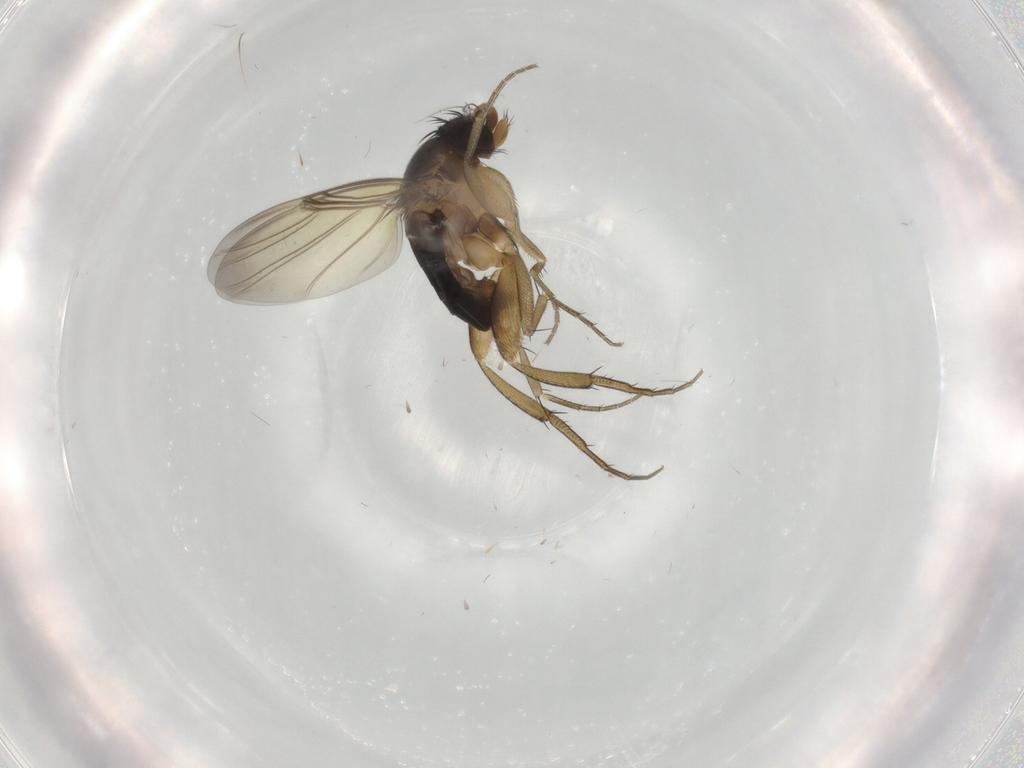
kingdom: Animalia
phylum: Arthropoda
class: Insecta
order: Diptera
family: Phoridae
